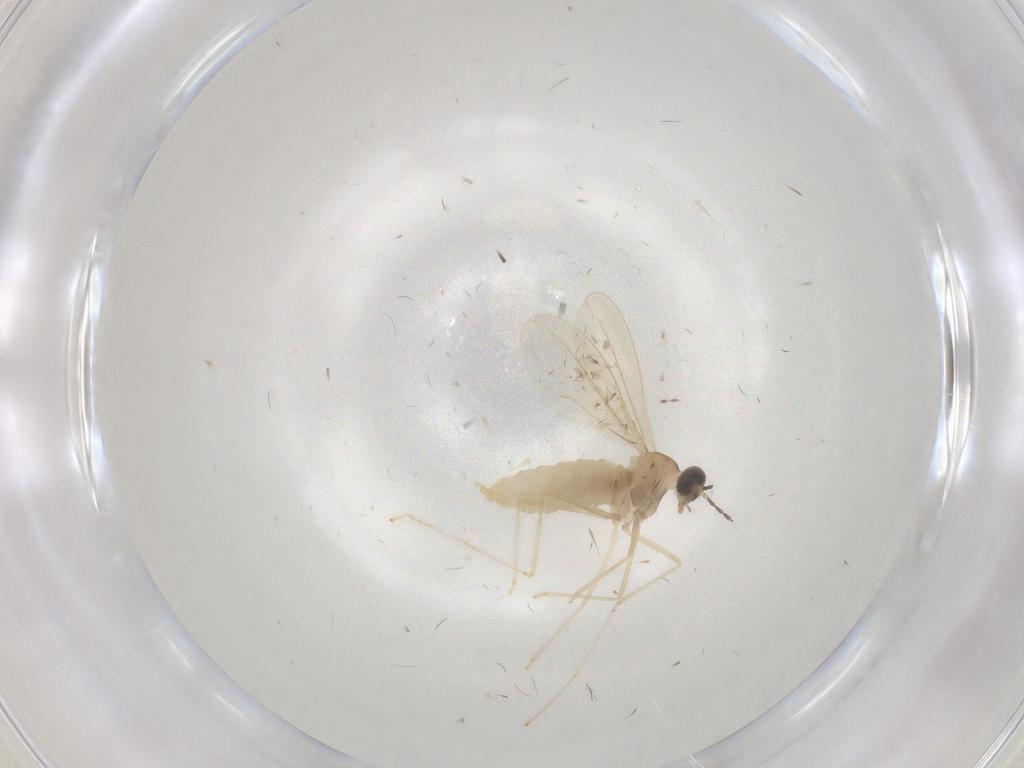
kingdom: Animalia
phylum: Arthropoda
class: Insecta
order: Diptera
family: Cecidomyiidae
